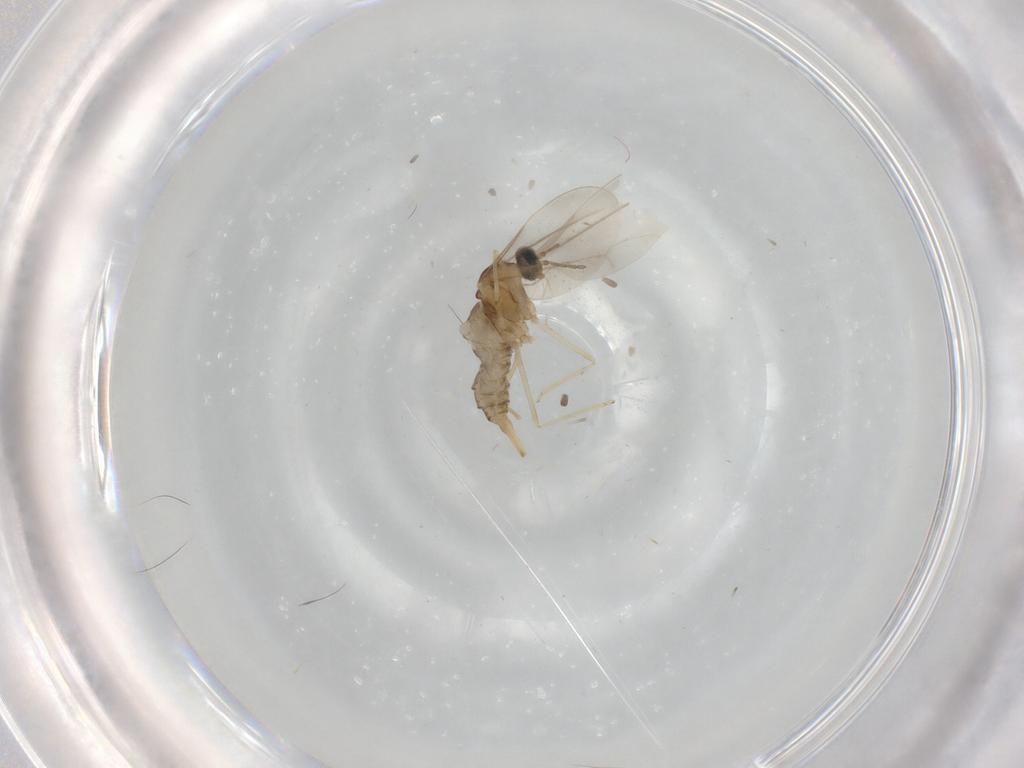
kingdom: Animalia
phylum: Arthropoda
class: Insecta
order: Diptera
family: Cecidomyiidae
